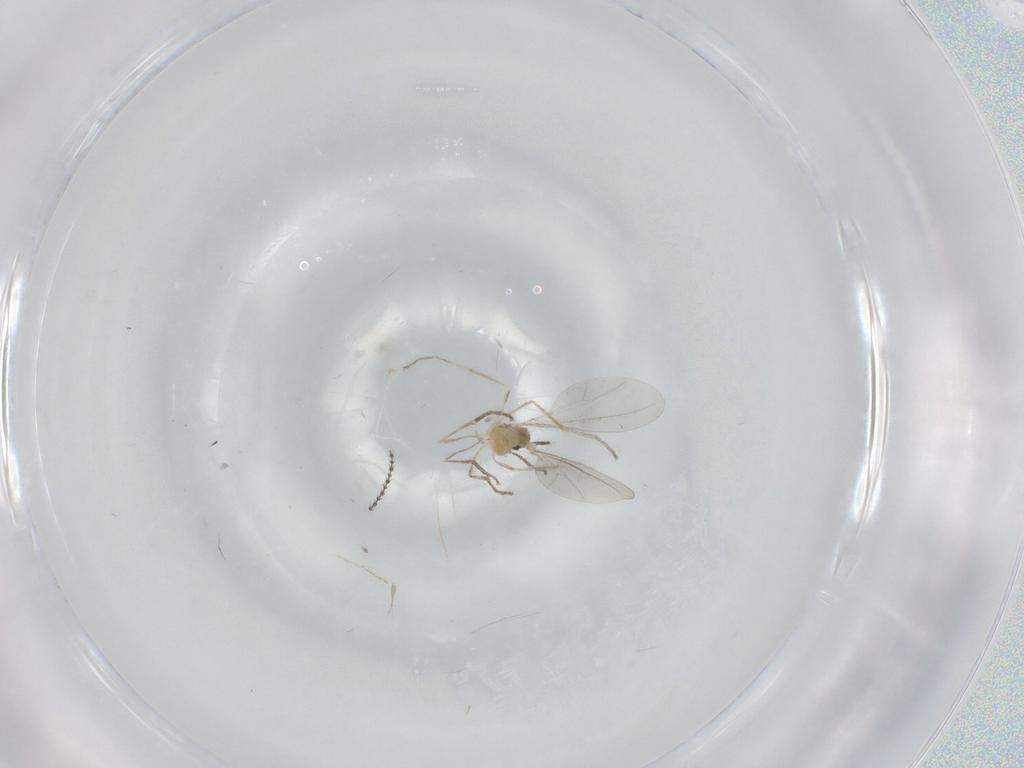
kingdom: Animalia
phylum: Arthropoda
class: Insecta
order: Diptera
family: Cecidomyiidae
